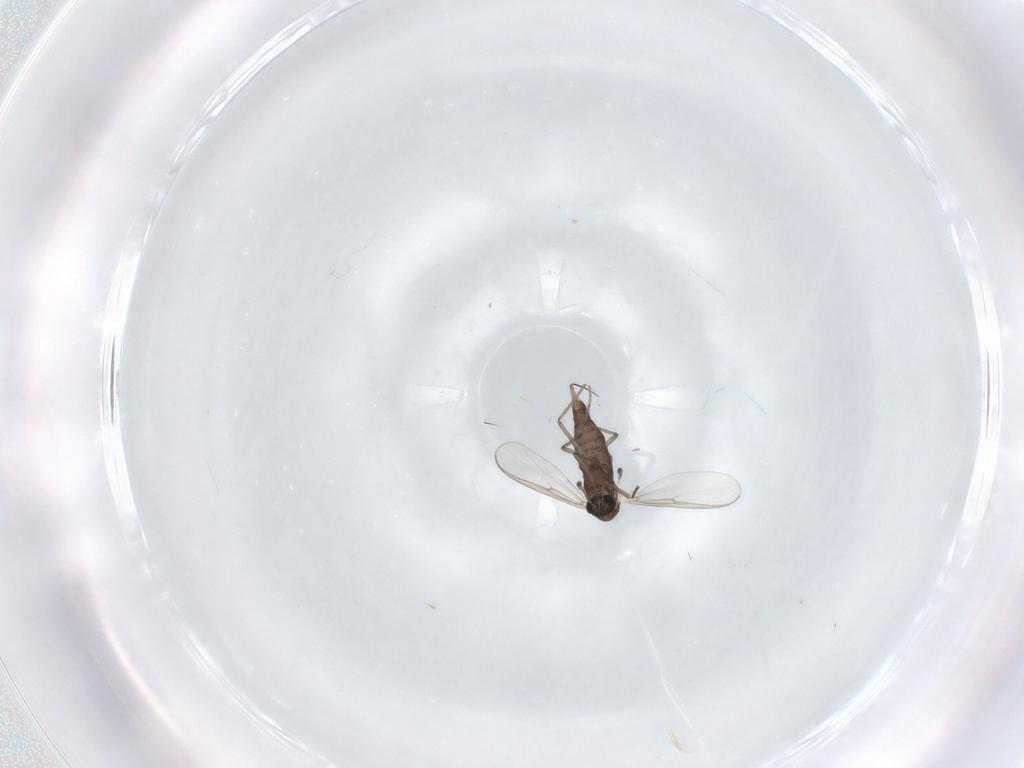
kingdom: Animalia
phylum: Arthropoda
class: Insecta
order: Diptera
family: Chironomidae
